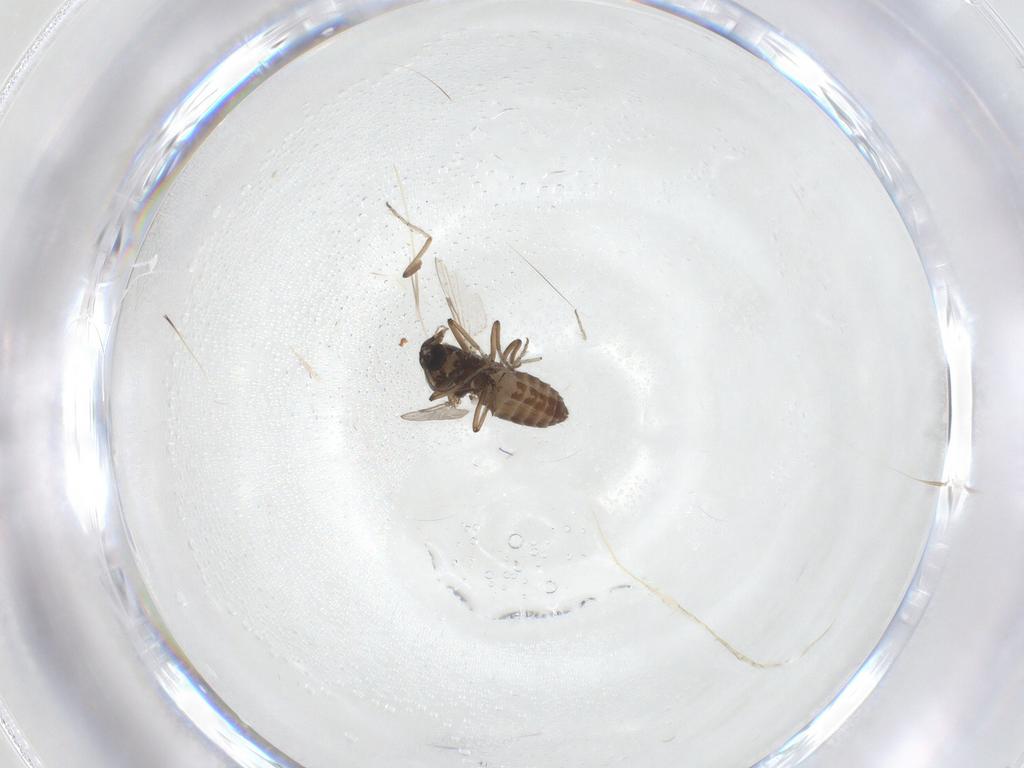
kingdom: Animalia
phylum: Arthropoda
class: Insecta
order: Diptera
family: Ceratopogonidae
